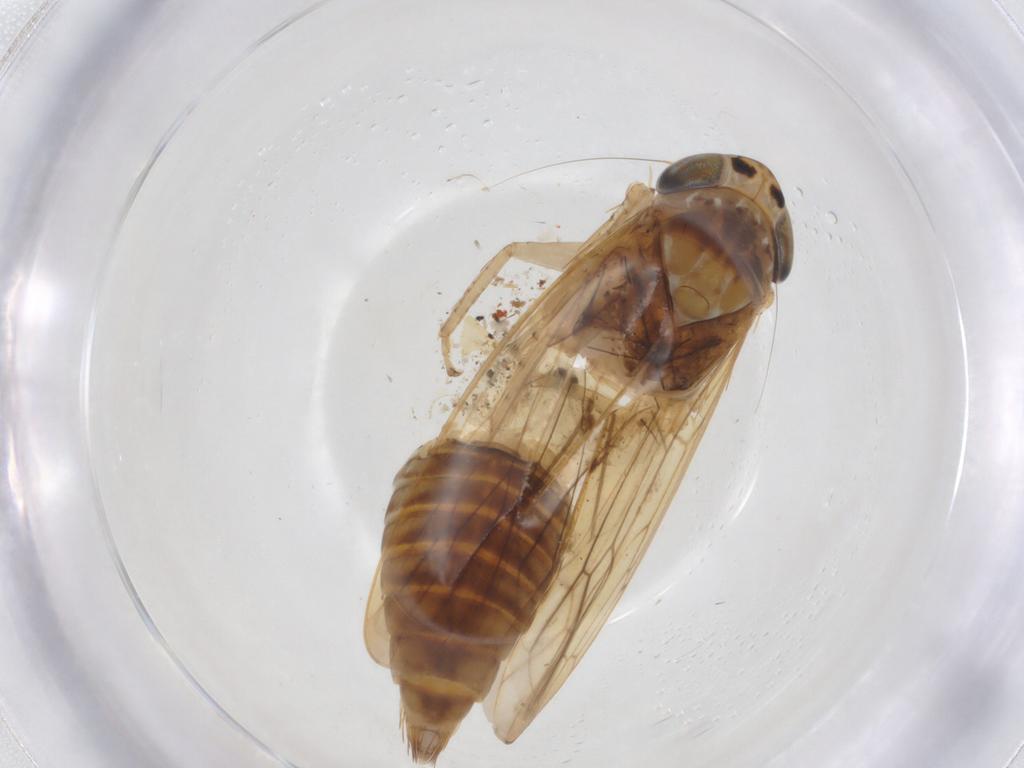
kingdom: Animalia
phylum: Arthropoda
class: Insecta
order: Hemiptera
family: Cicadellidae
